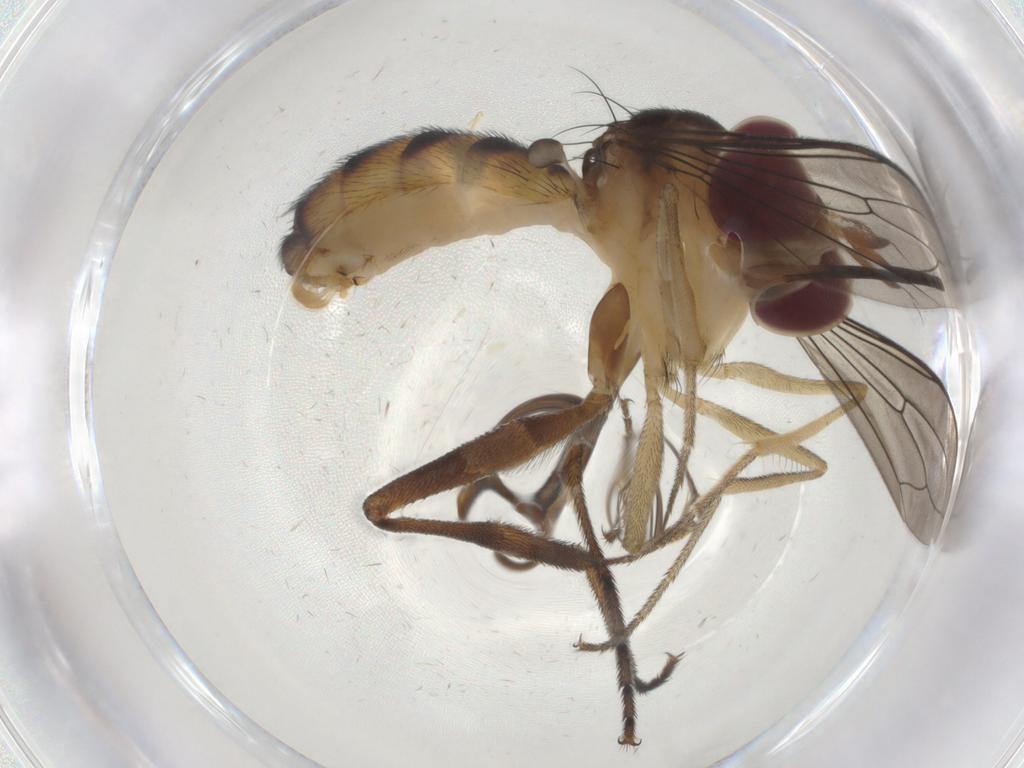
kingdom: Animalia
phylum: Arthropoda
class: Insecta
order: Diptera
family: Conopidae
